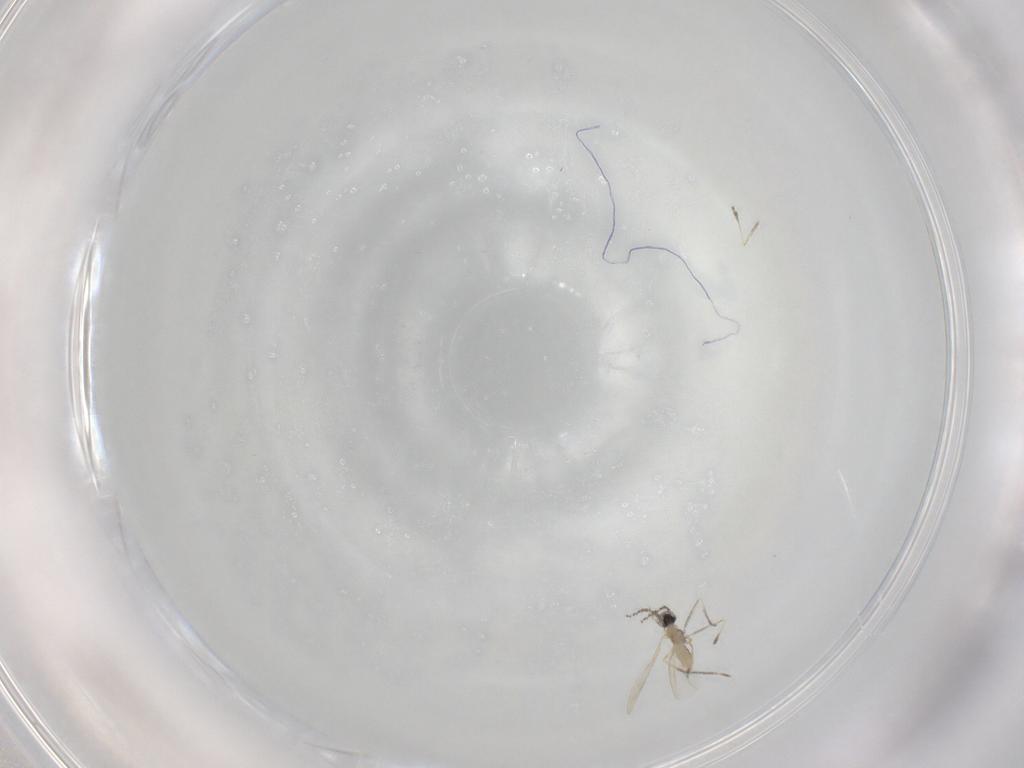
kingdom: Animalia
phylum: Arthropoda
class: Insecta
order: Diptera
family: Cecidomyiidae
